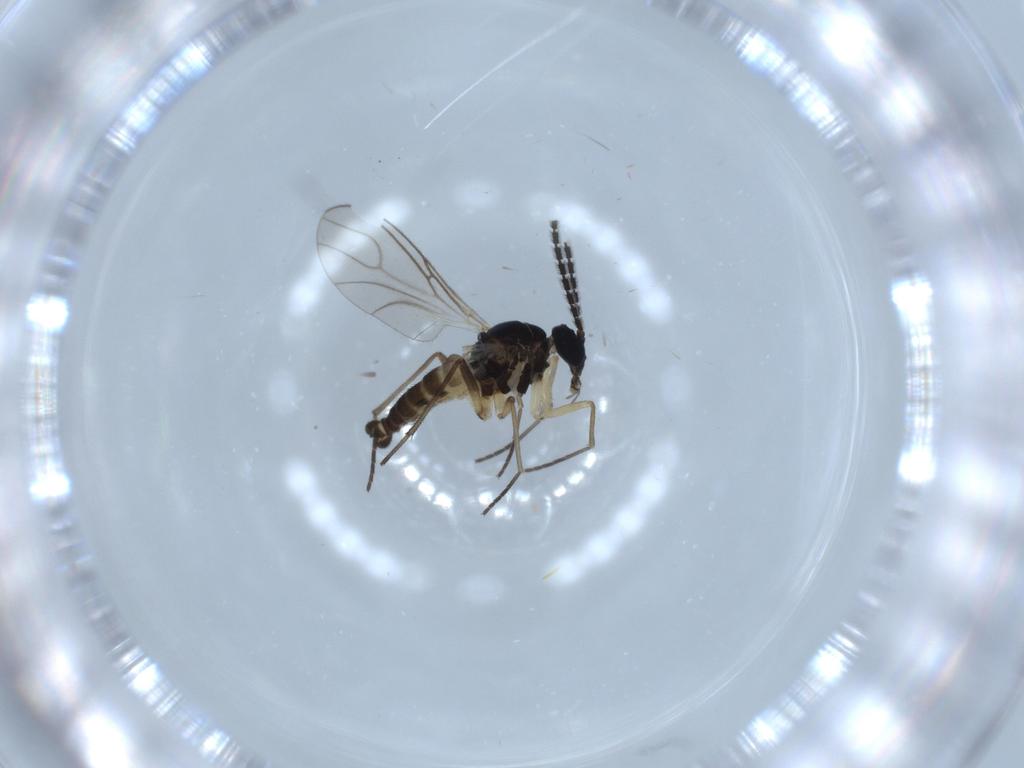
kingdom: Animalia
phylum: Arthropoda
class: Insecta
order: Diptera
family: Sciaridae
